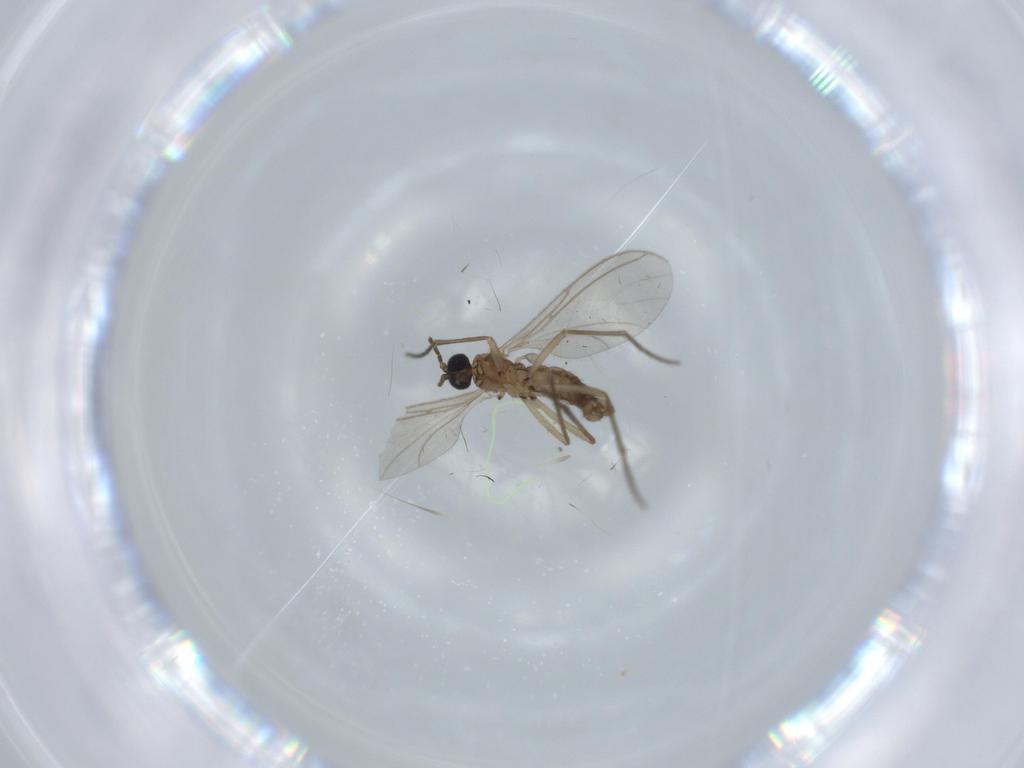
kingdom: Animalia
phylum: Arthropoda
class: Insecta
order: Diptera
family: Sciaridae
